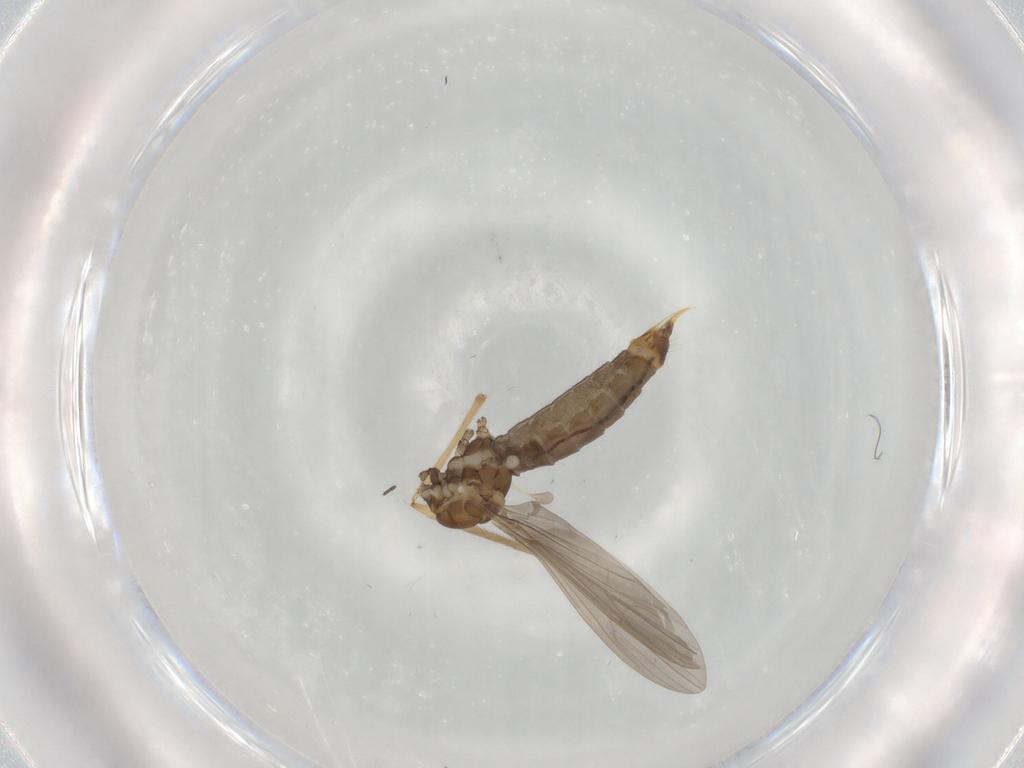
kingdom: Animalia
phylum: Arthropoda
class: Insecta
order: Diptera
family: Limoniidae
